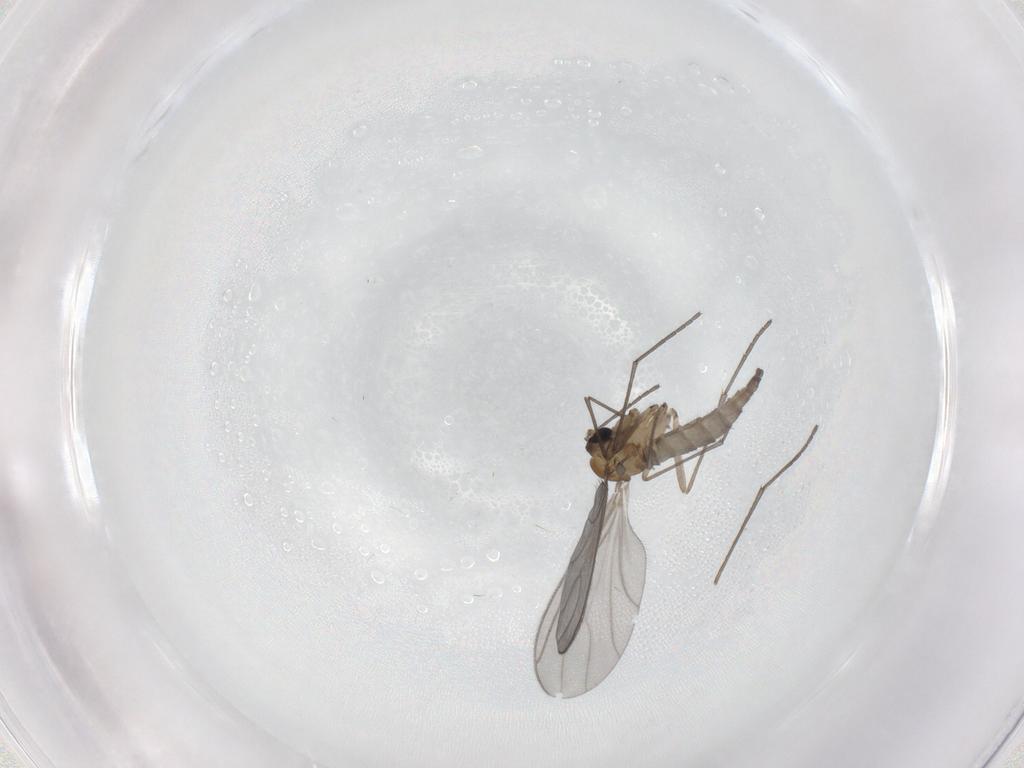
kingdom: Animalia
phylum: Arthropoda
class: Insecta
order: Diptera
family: Sciaridae
